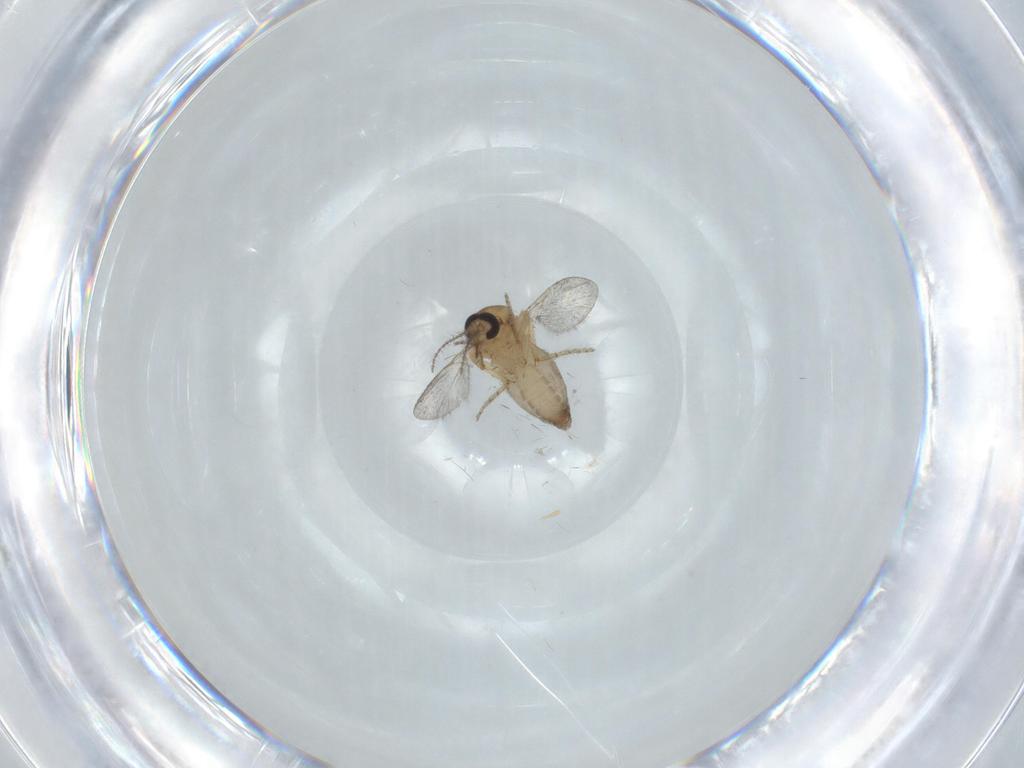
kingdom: Animalia
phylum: Arthropoda
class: Insecta
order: Diptera
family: Ceratopogonidae
